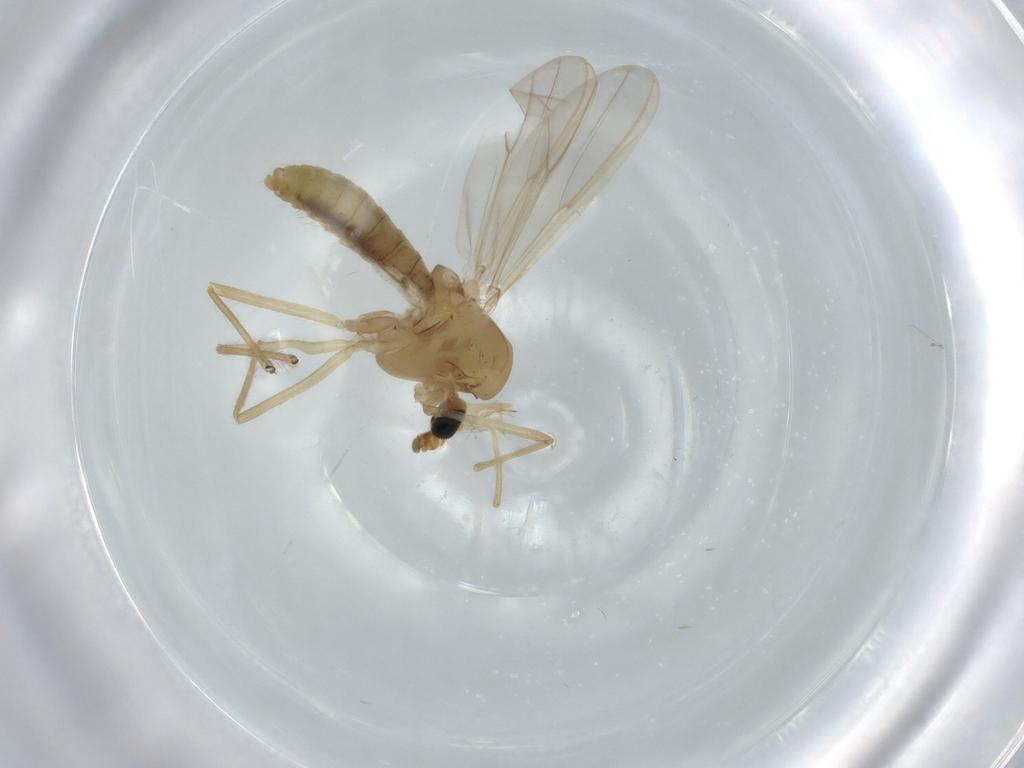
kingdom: Animalia
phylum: Arthropoda
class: Insecta
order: Diptera
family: Chironomidae
